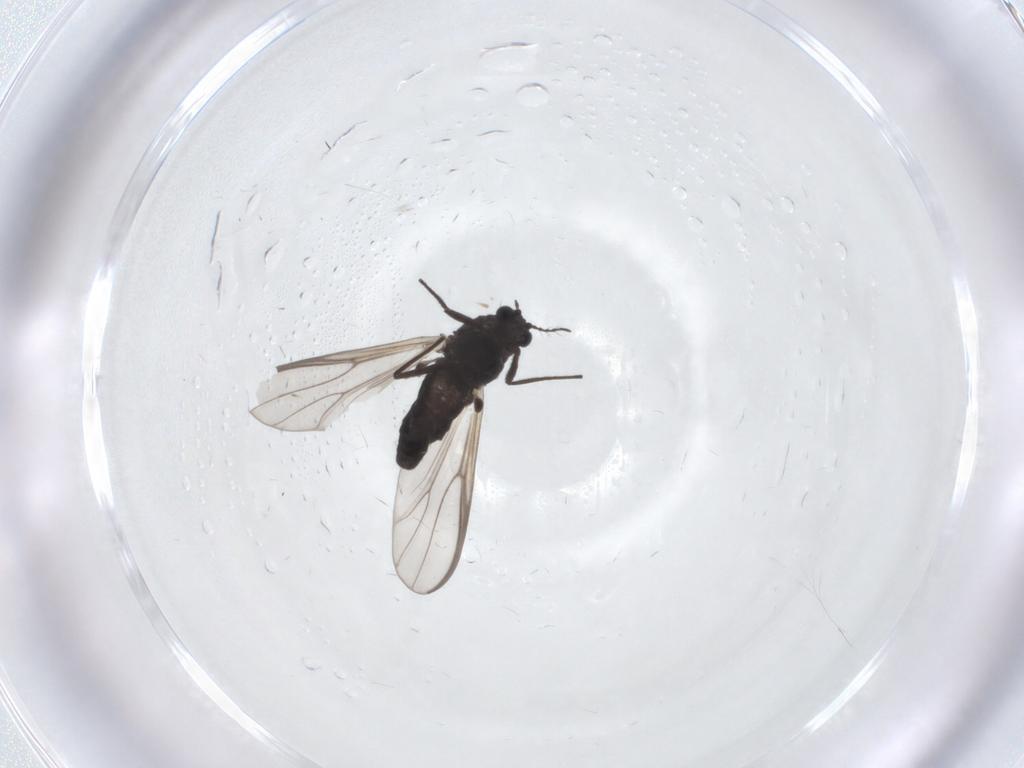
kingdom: Animalia
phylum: Arthropoda
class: Insecta
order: Diptera
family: Chironomidae
